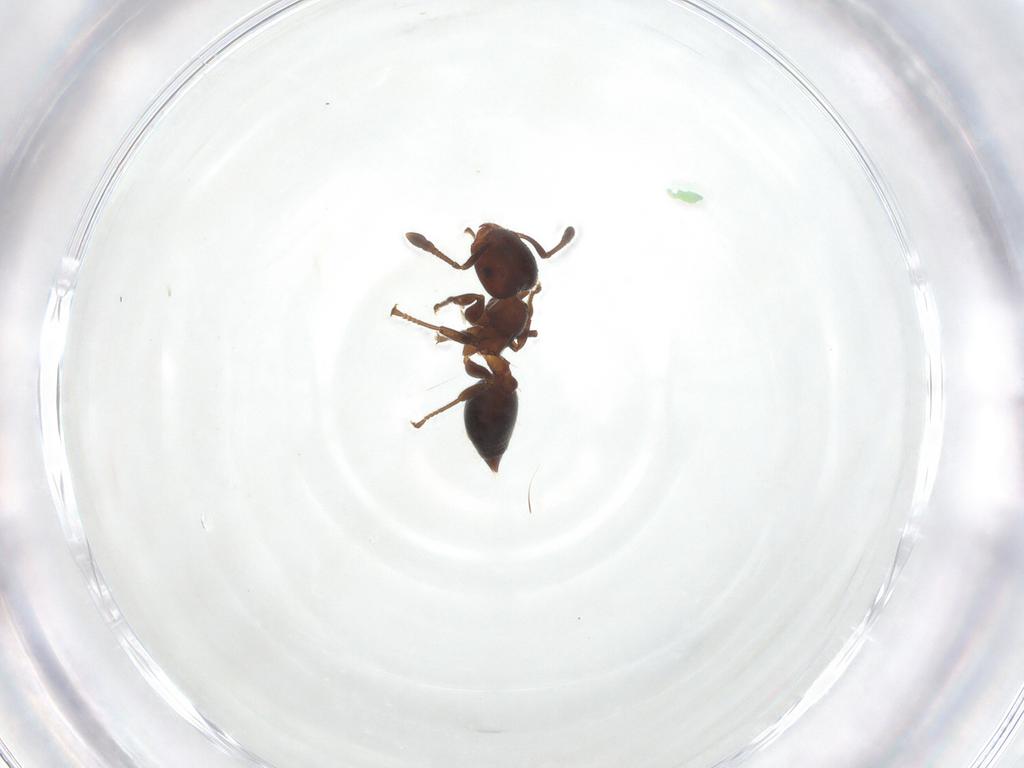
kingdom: Animalia
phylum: Arthropoda
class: Insecta
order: Hymenoptera
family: Formicidae
